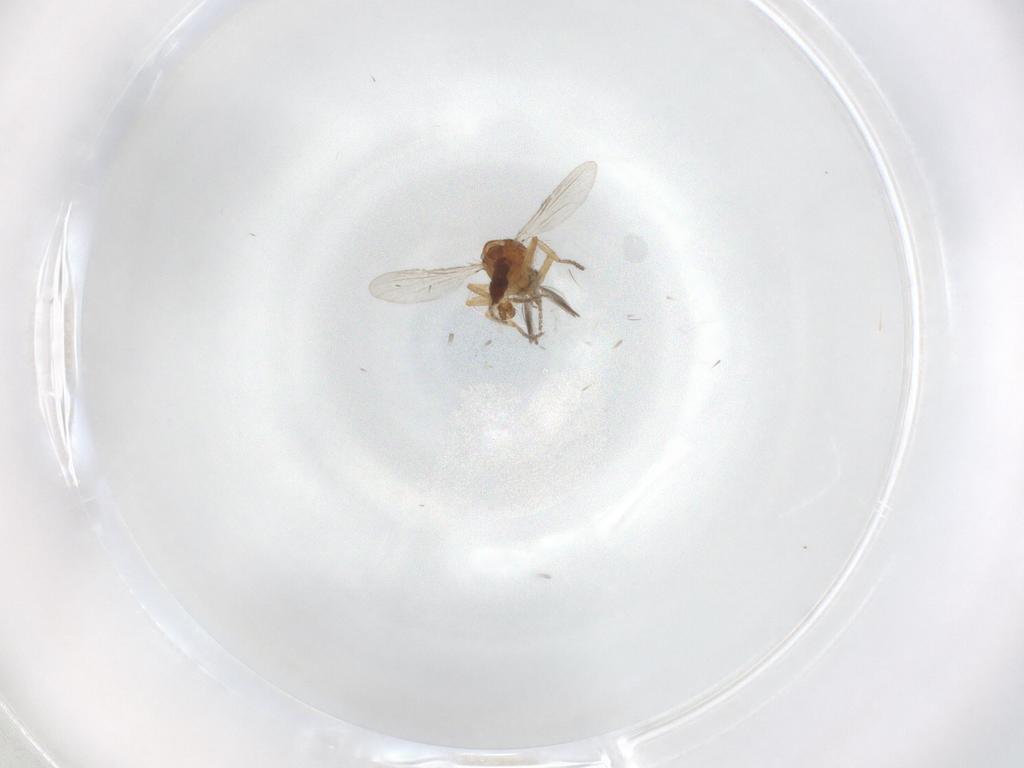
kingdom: Animalia
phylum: Arthropoda
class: Insecta
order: Diptera
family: Ceratopogonidae
